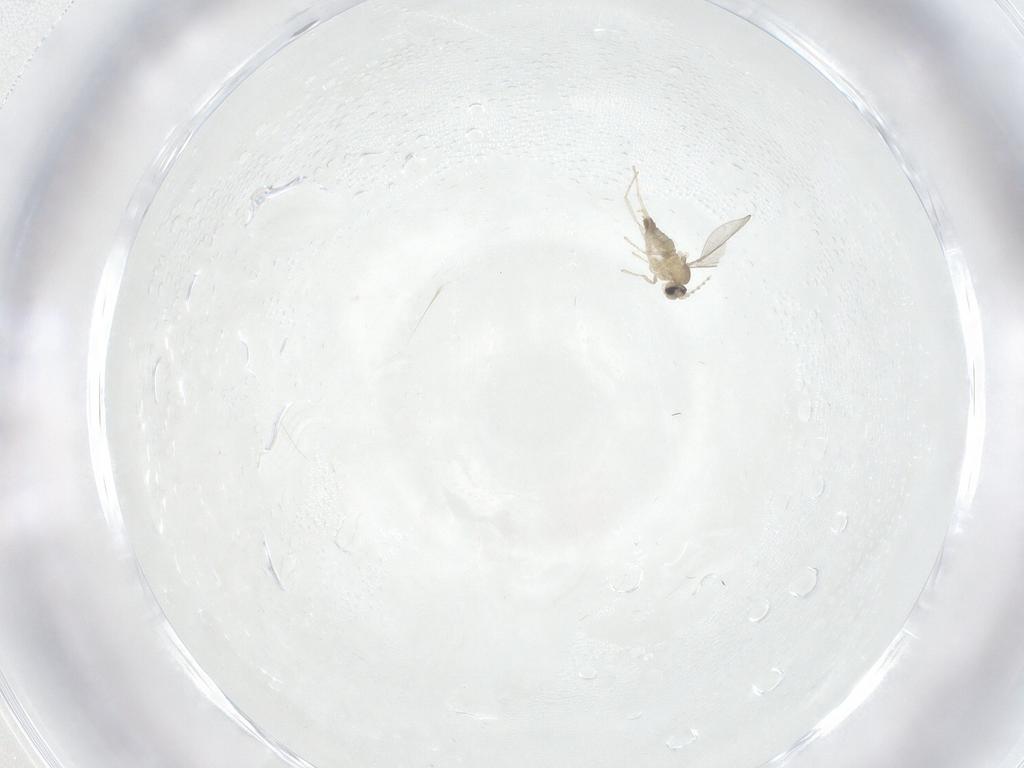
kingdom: Animalia
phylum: Arthropoda
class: Insecta
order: Diptera
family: Cecidomyiidae
